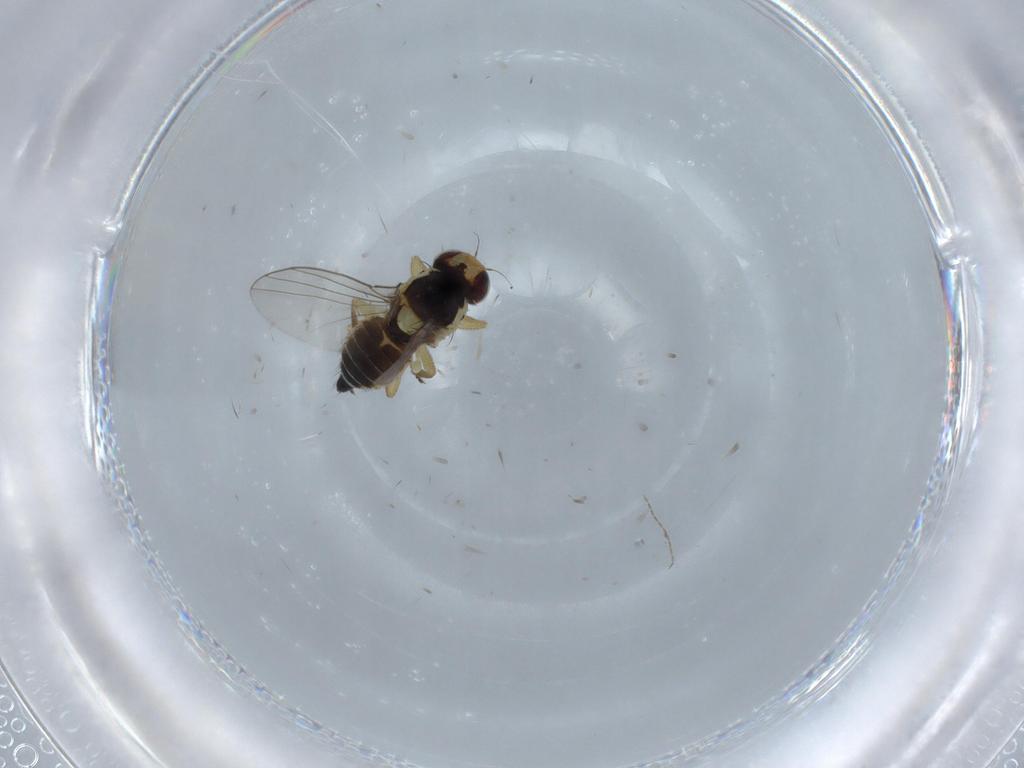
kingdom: Animalia
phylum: Arthropoda
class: Insecta
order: Diptera
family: Agromyzidae
